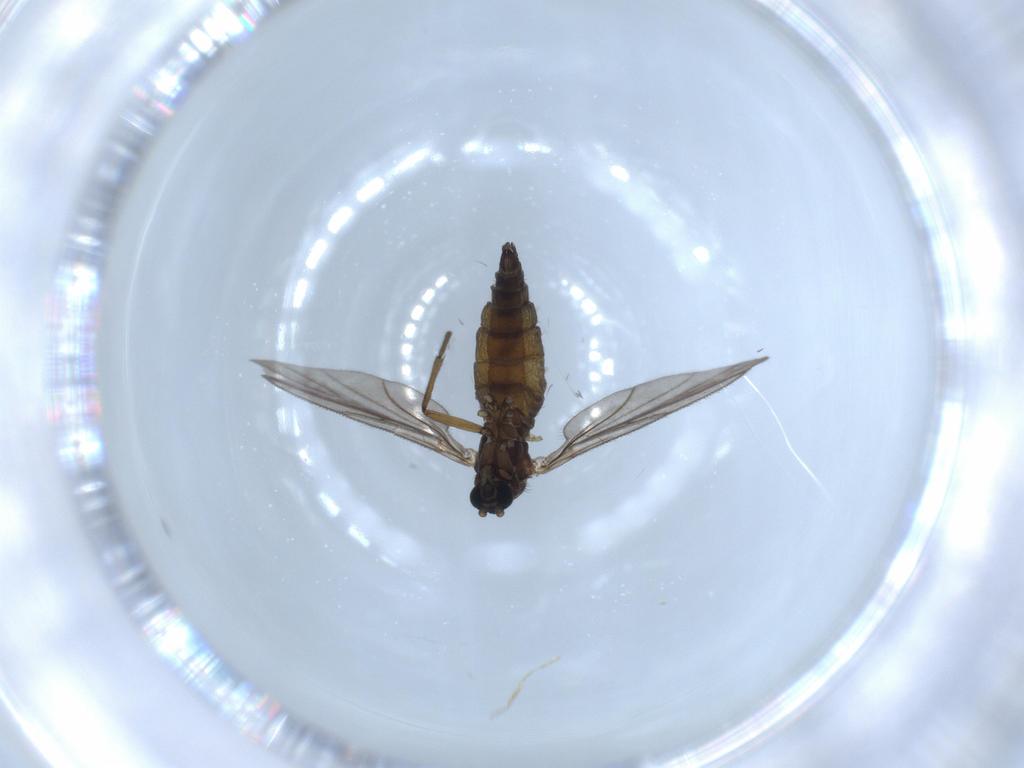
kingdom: Animalia
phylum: Arthropoda
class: Insecta
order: Diptera
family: Sciaridae
